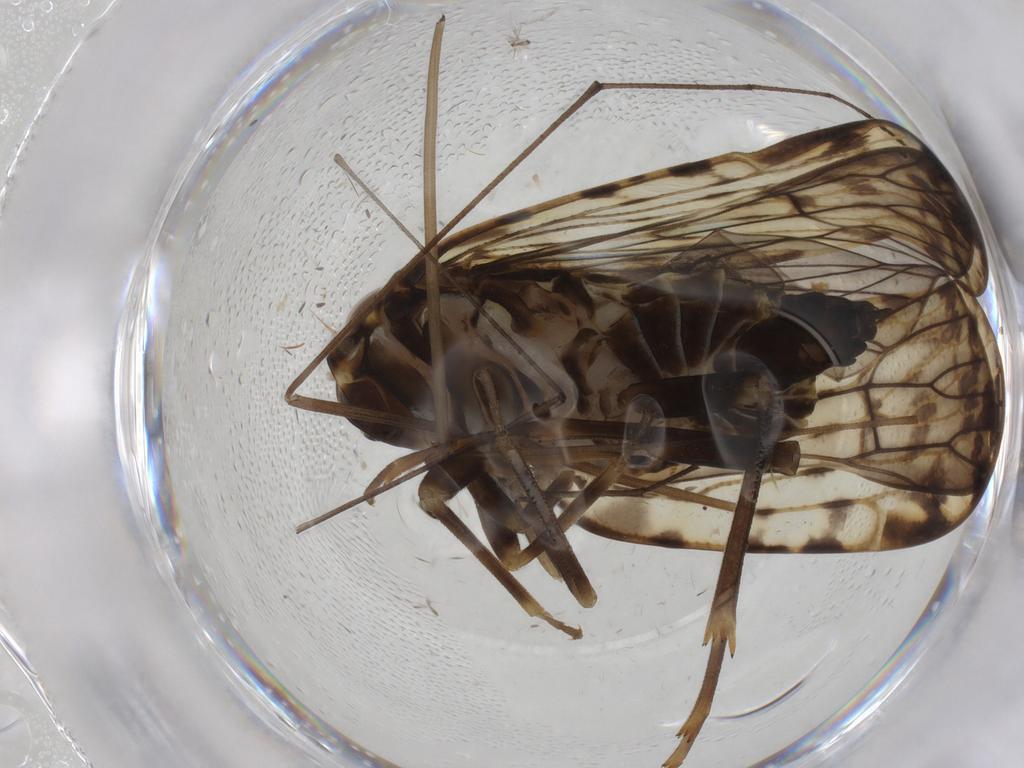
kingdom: Animalia
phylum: Arthropoda
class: Insecta
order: Hemiptera
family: Cixiidae
